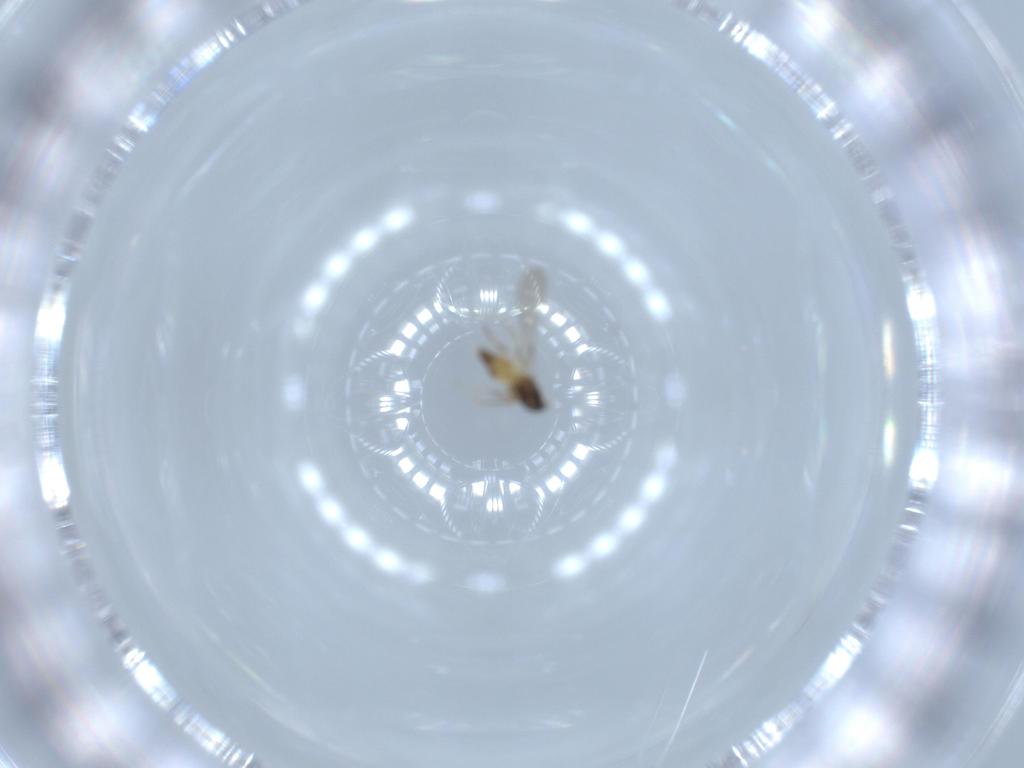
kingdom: Animalia
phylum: Arthropoda
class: Insecta
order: Hymenoptera
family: Mymaridae
